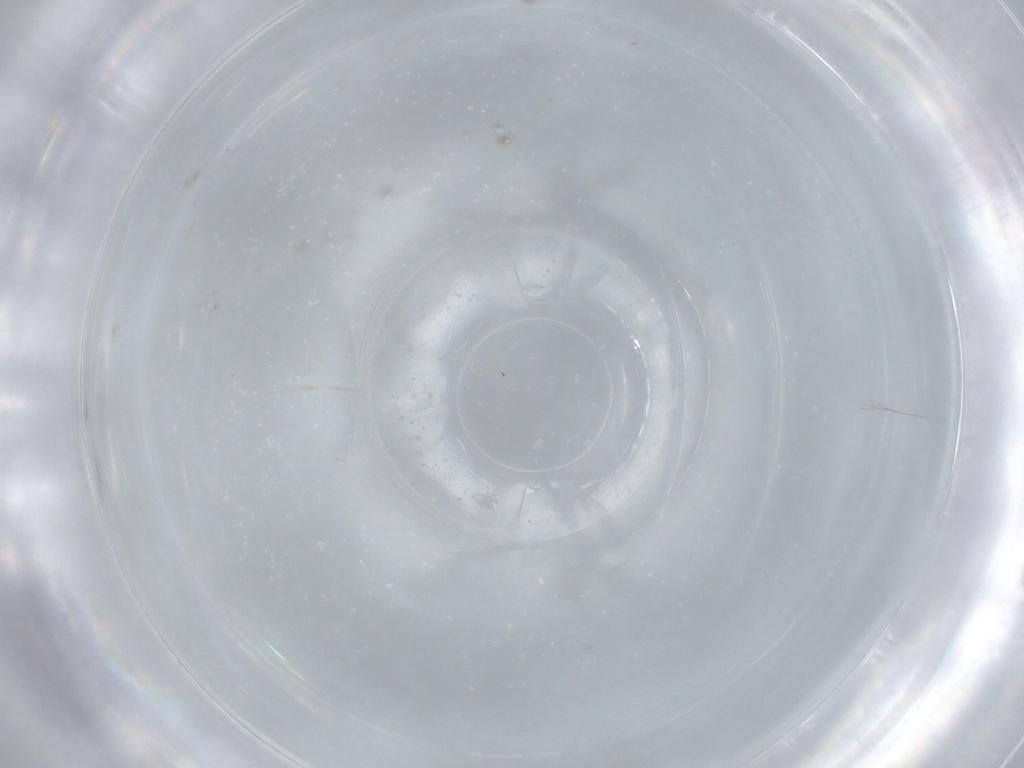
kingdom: Animalia
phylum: Arthropoda
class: Insecta
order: Diptera
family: Cecidomyiidae
